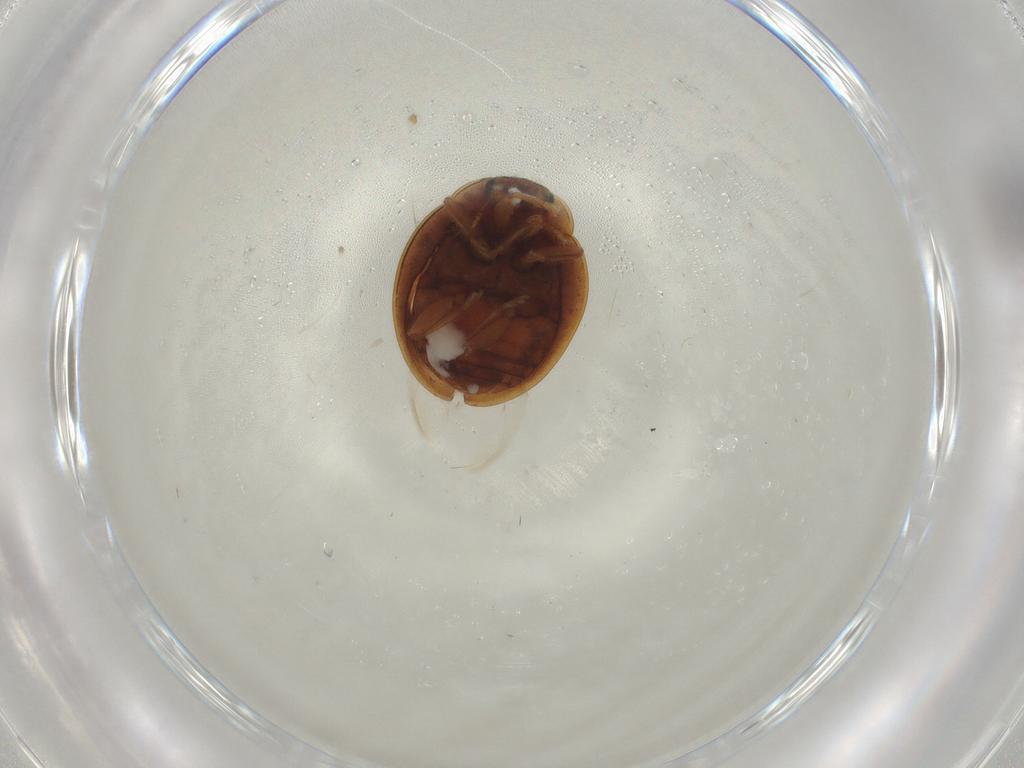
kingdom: Animalia
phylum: Arthropoda
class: Insecta
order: Coleoptera
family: Coccinellidae
